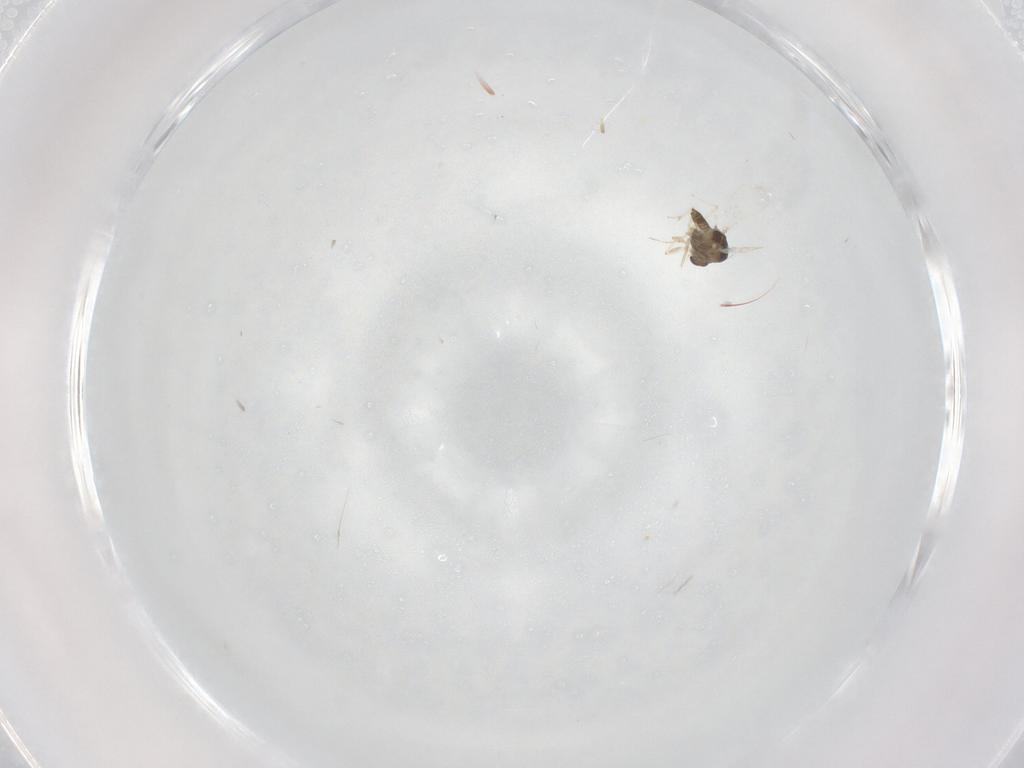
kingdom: Animalia
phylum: Arthropoda
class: Insecta
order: Diptera
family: Chironomidae
